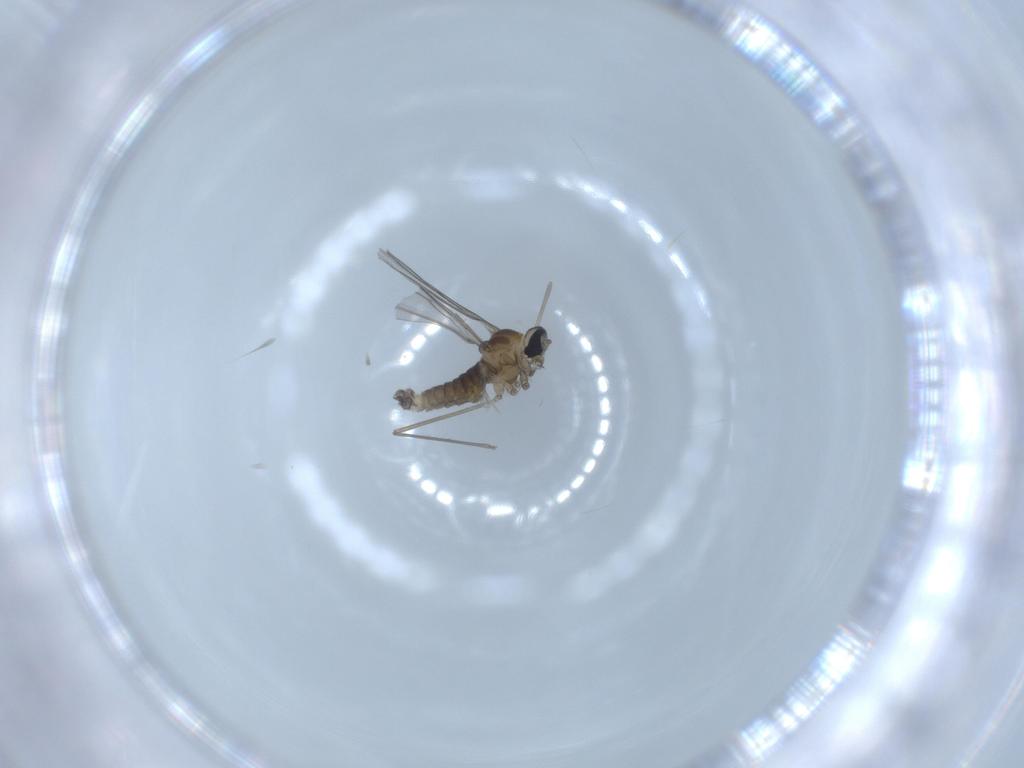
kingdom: Animalia
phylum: Arthropoda
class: Insecta
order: Diptera
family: Cecidomyiidae
